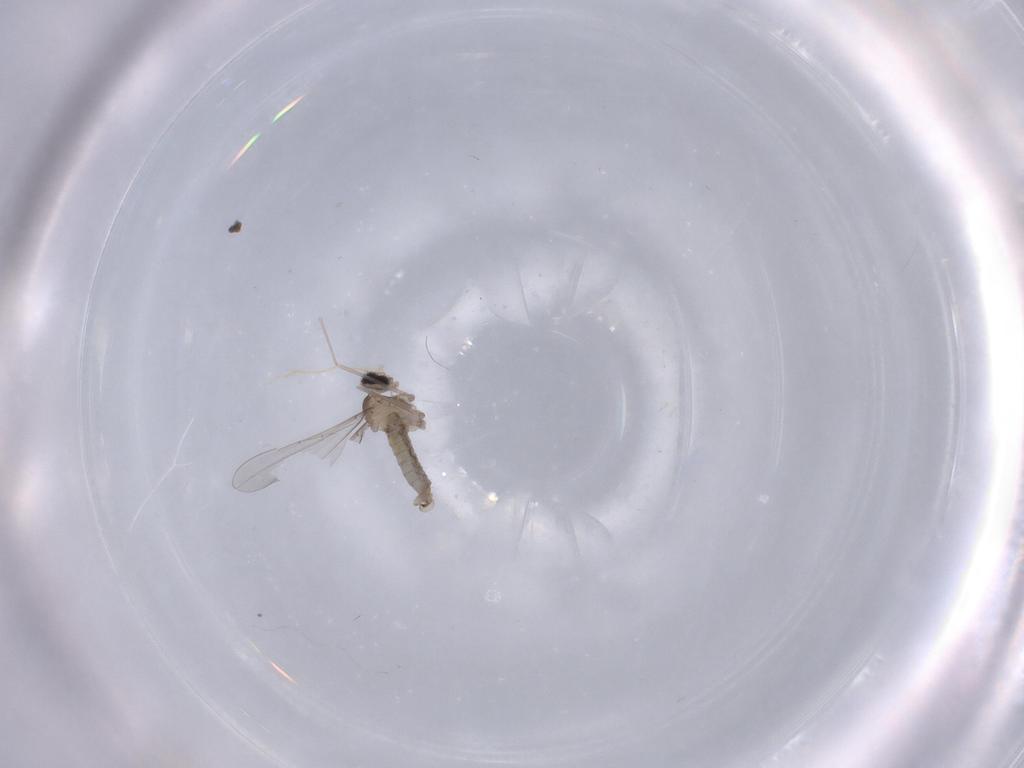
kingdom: Animalia
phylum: Arthropoda
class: Insecta
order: Diptera
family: Cecidomyiidae
